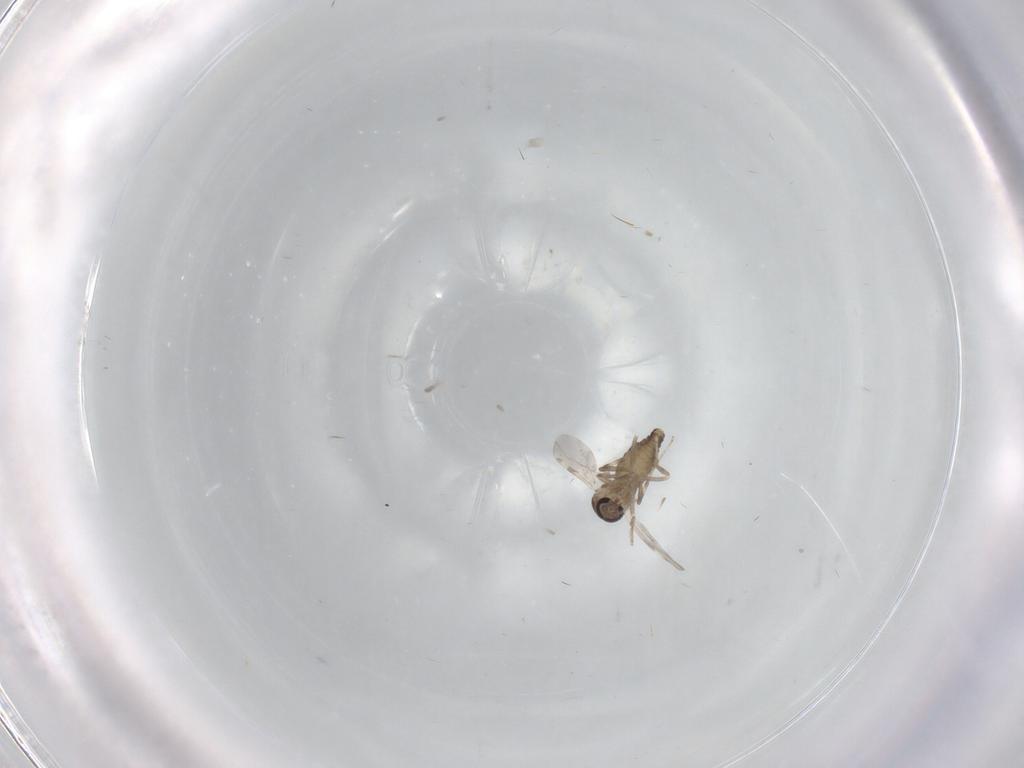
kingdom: Animalia
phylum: Arthropoda
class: Insecta
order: Diptera
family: Ceratopogonidae
